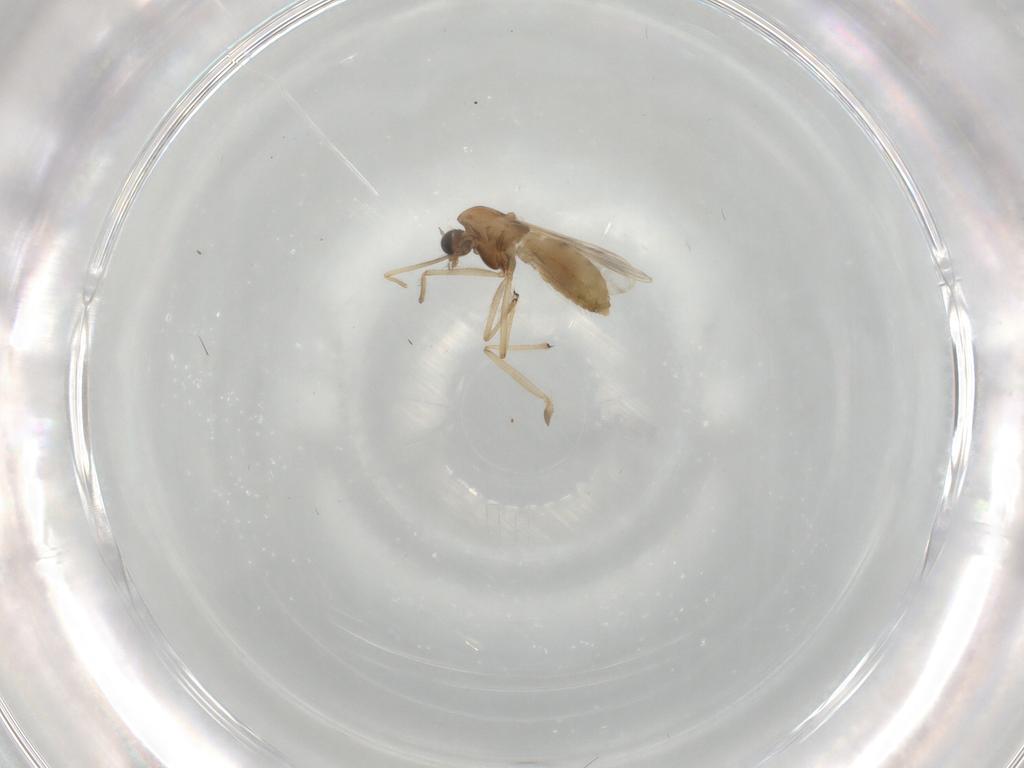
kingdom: Animalia
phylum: Arthropoda
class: Insecta
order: Diptera
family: Chironomidae
